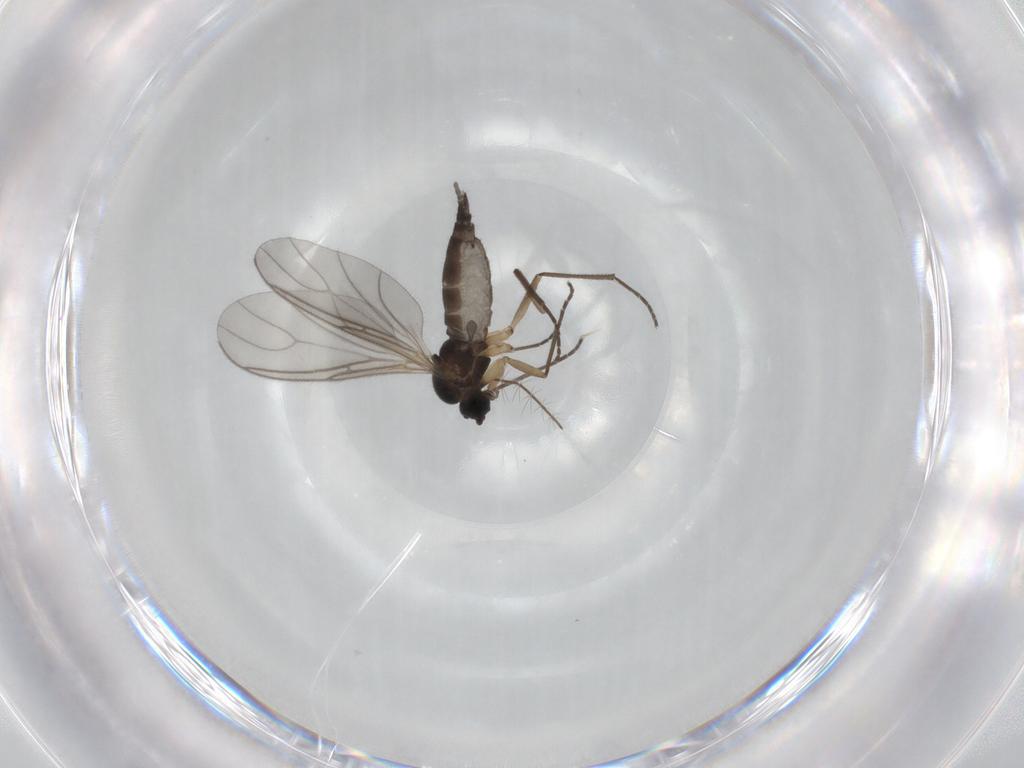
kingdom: Animalia
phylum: Arthropoda
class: Insecta
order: Diptera
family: Sciaridae
